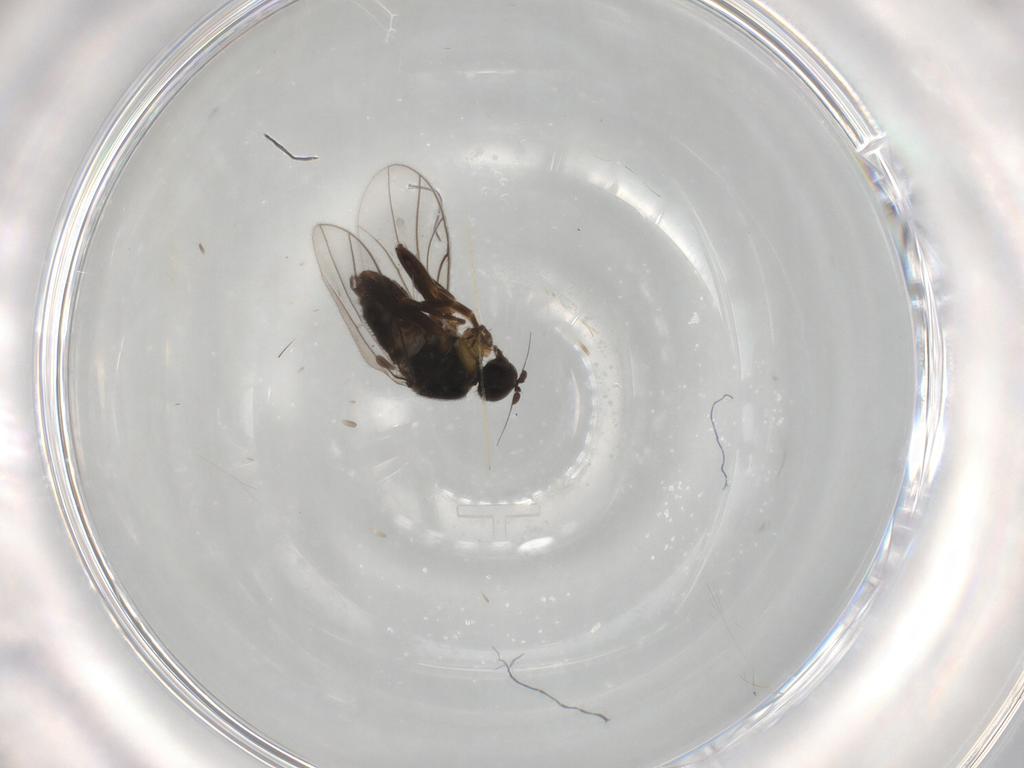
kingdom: Animalia
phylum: Arthropoda
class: Insecta
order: Diptera
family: Hybotidae
